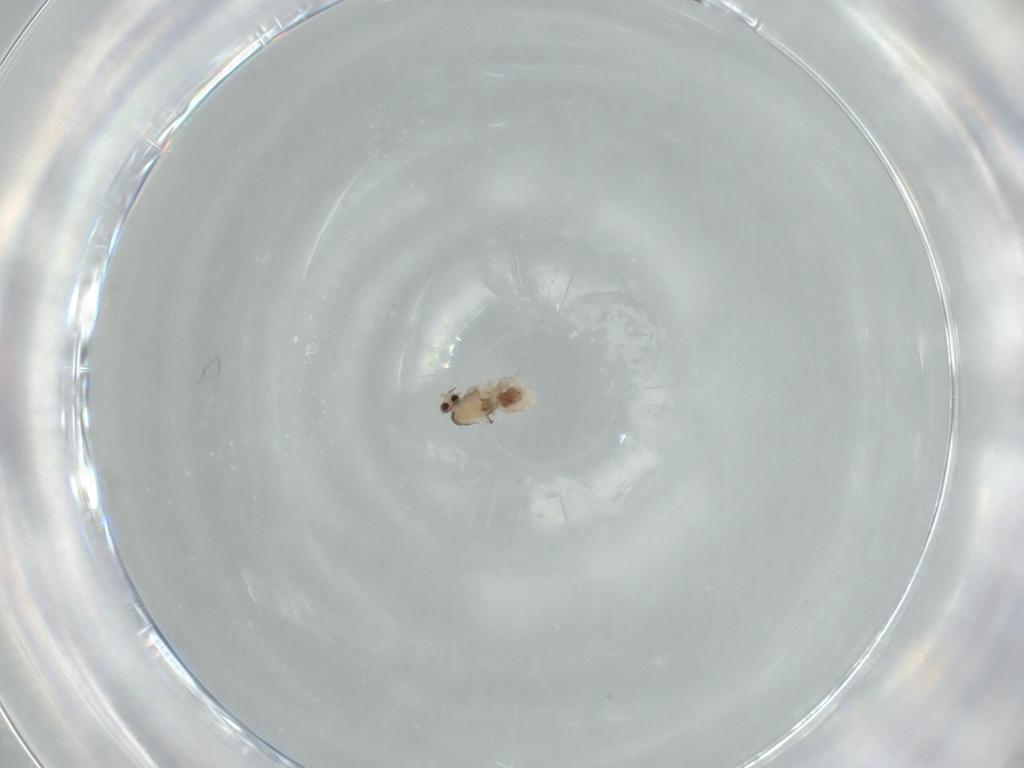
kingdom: Animalia
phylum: Arthropoda
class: Insecta
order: Diptera
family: Cecidomyiidae
